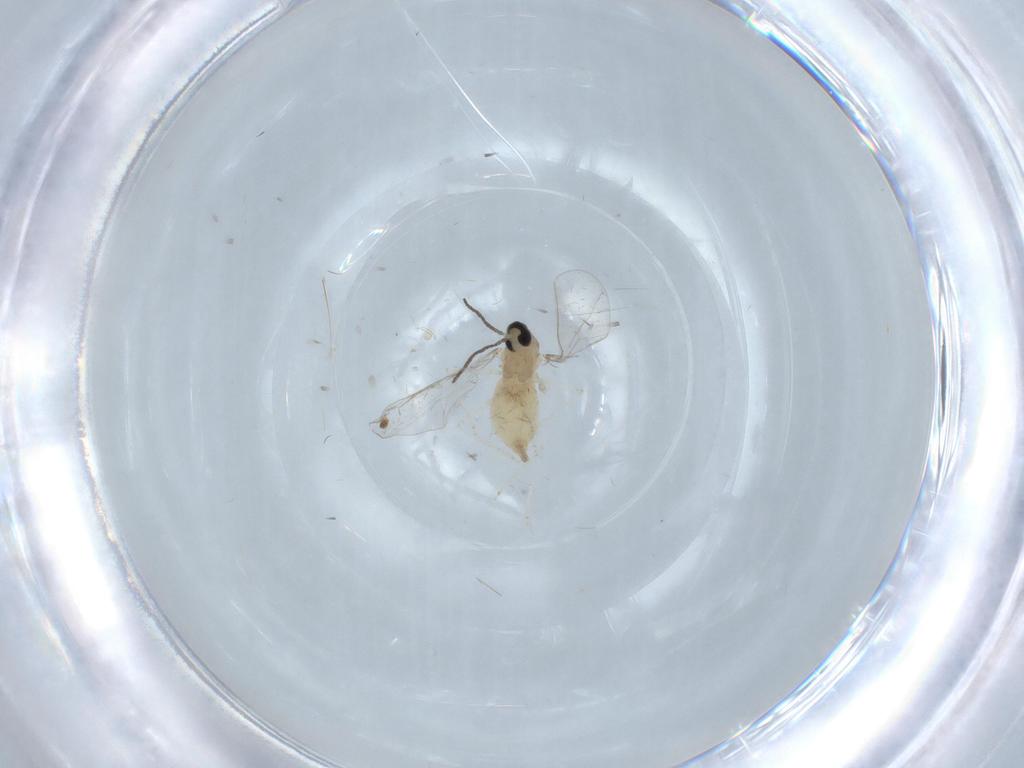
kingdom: Animalia
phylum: Arthropoda
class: Insecta
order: Diptera
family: Cecidomyiidae
